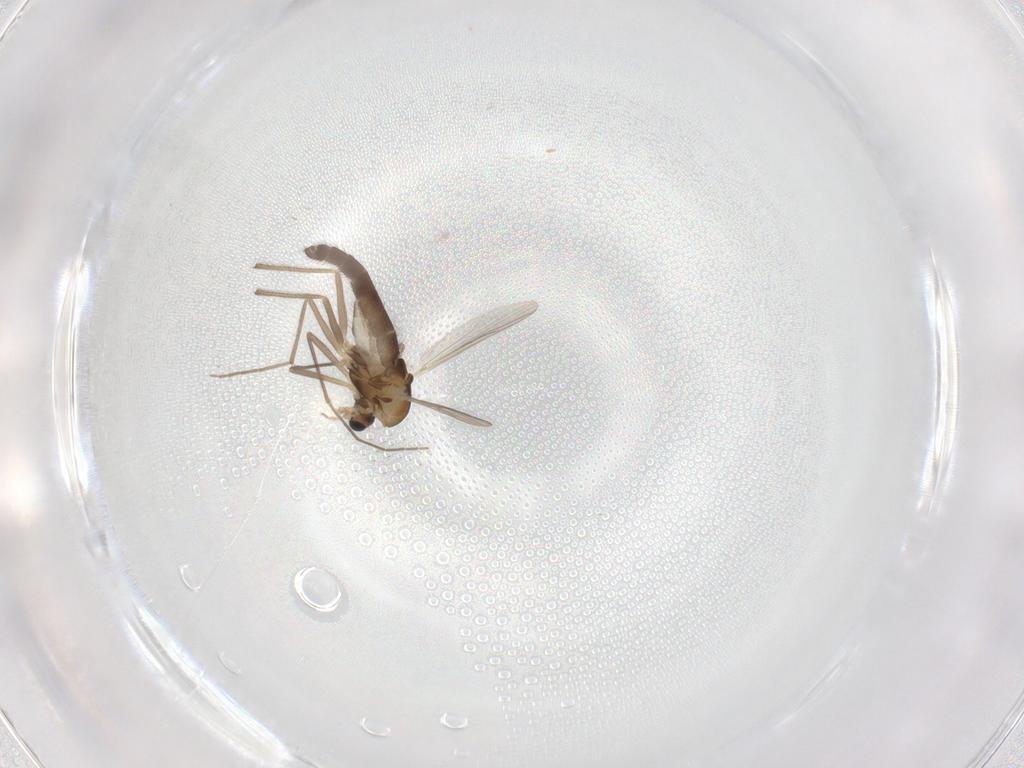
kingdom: Animalia
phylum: Arthropoda
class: Insecta
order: Diptera
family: Chironomidae
